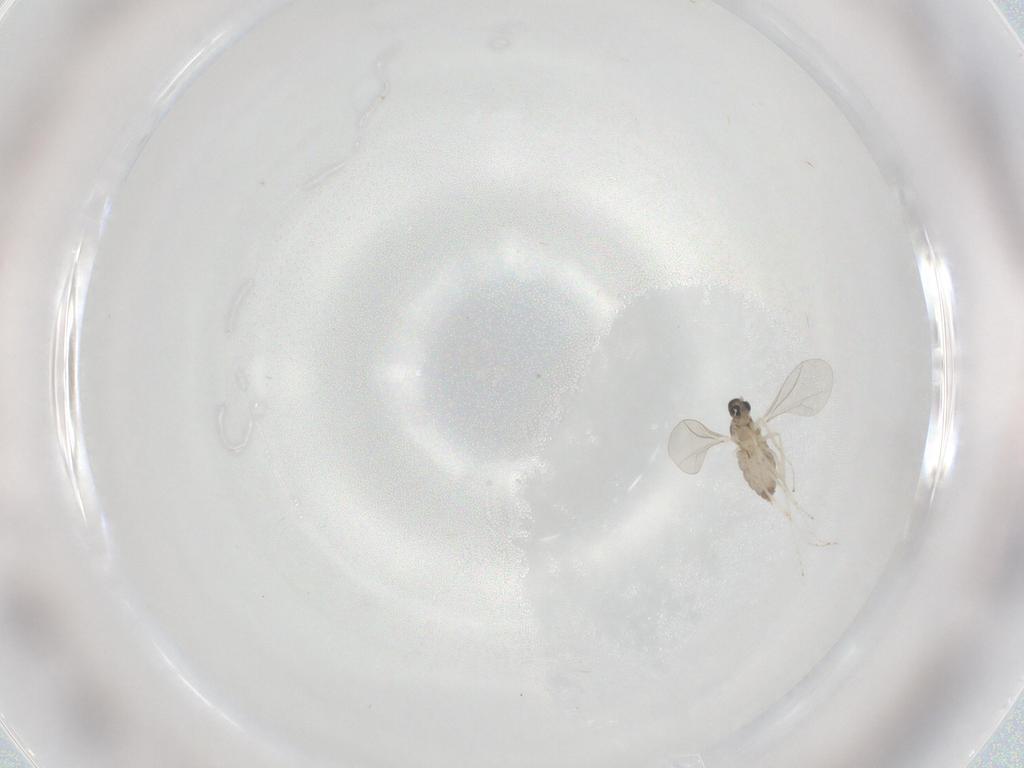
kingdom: Animalia
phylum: Arthropoda
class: Insecta
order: Diptera
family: Cecidomyiidae
